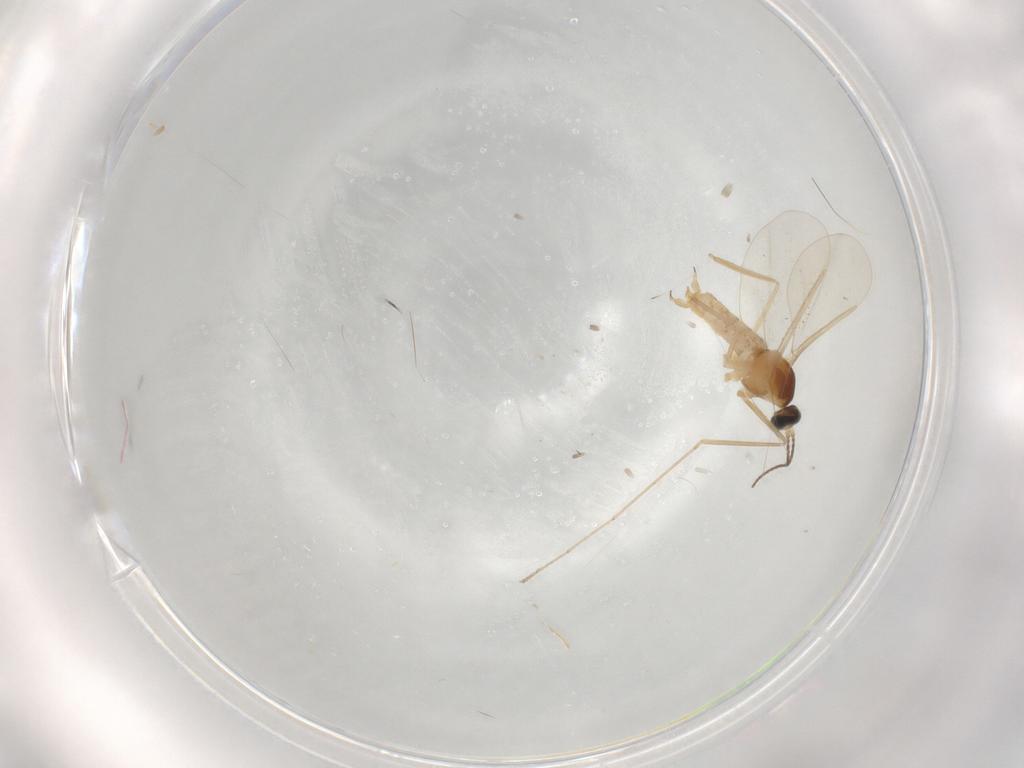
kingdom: Animalia
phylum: Arthropoda
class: Insecta
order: Diptera
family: Cecidomyiidae
